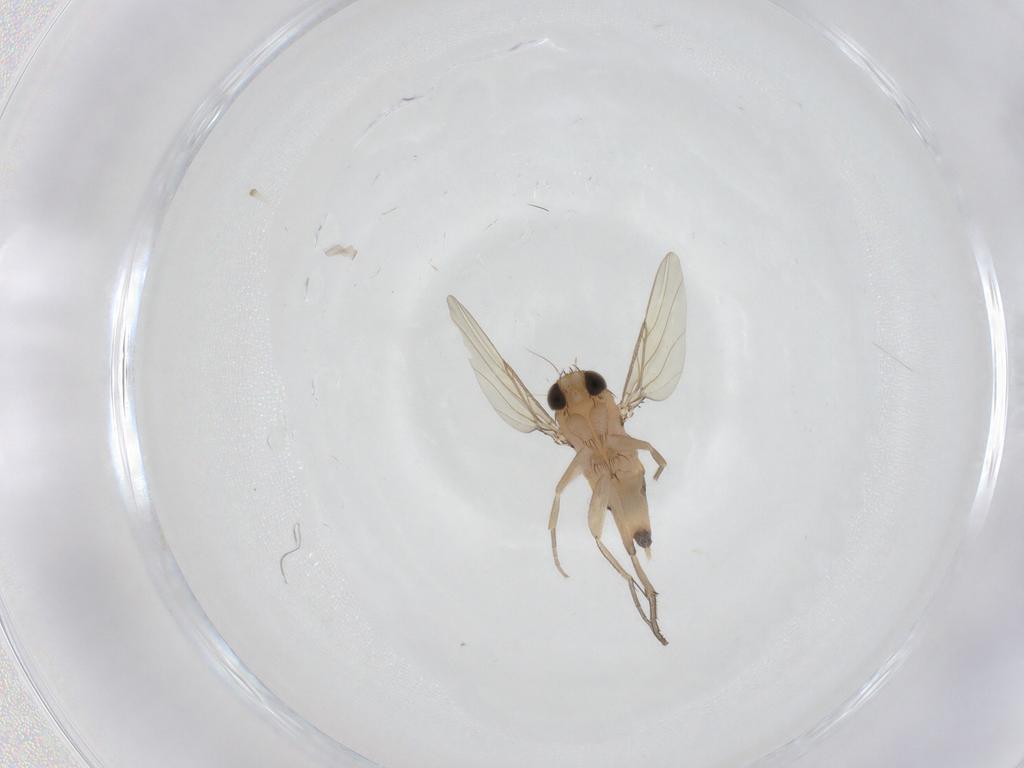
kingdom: Animalia
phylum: Arthropoda
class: Insecta
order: Diptera
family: Phoridae
